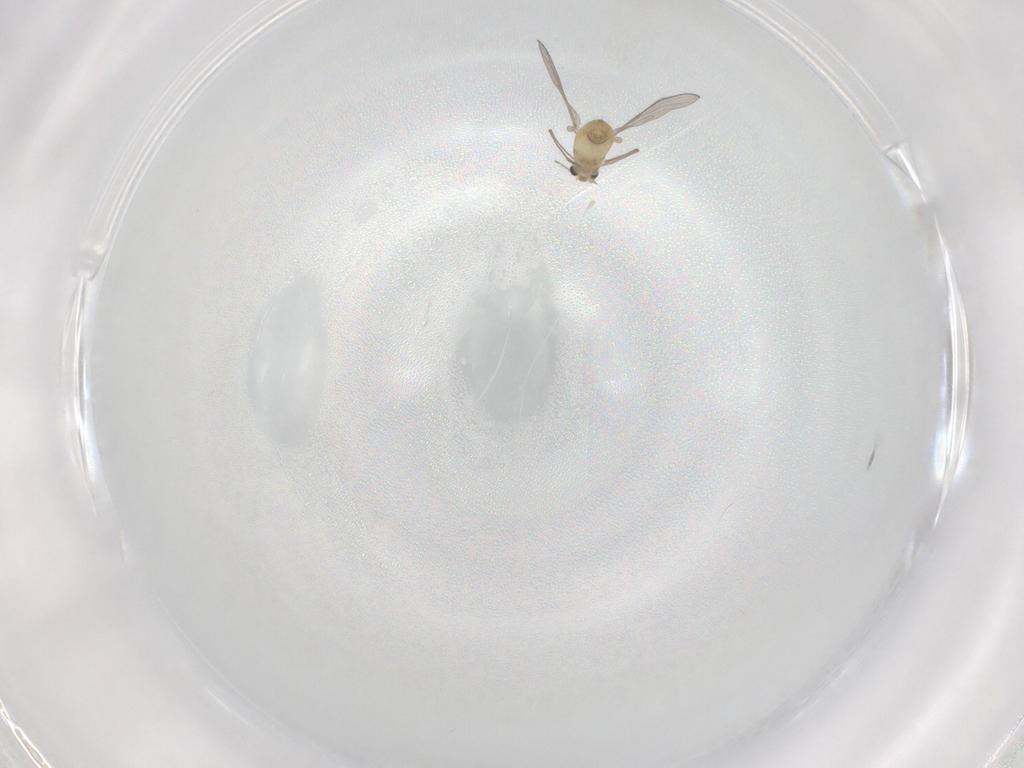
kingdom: Animalia
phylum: Arthropoda
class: Insecta
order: Diptera
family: Chironomidae
